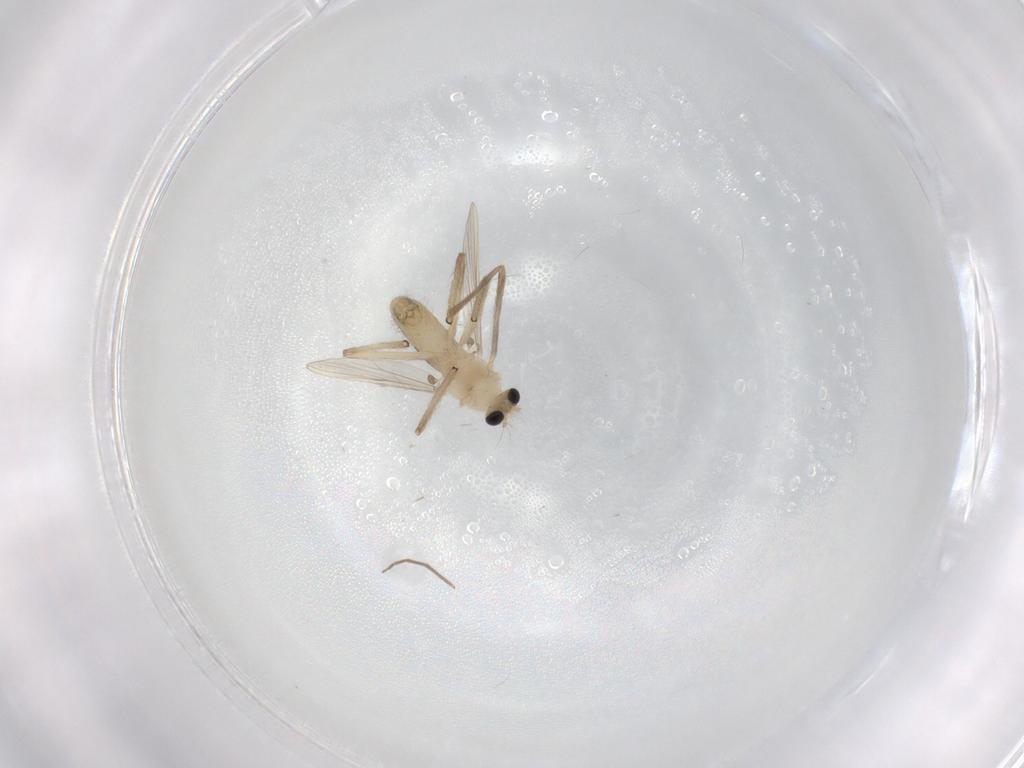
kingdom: Animalia
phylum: Arthropoda
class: Insecta
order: Diptera
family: Chironomidae
